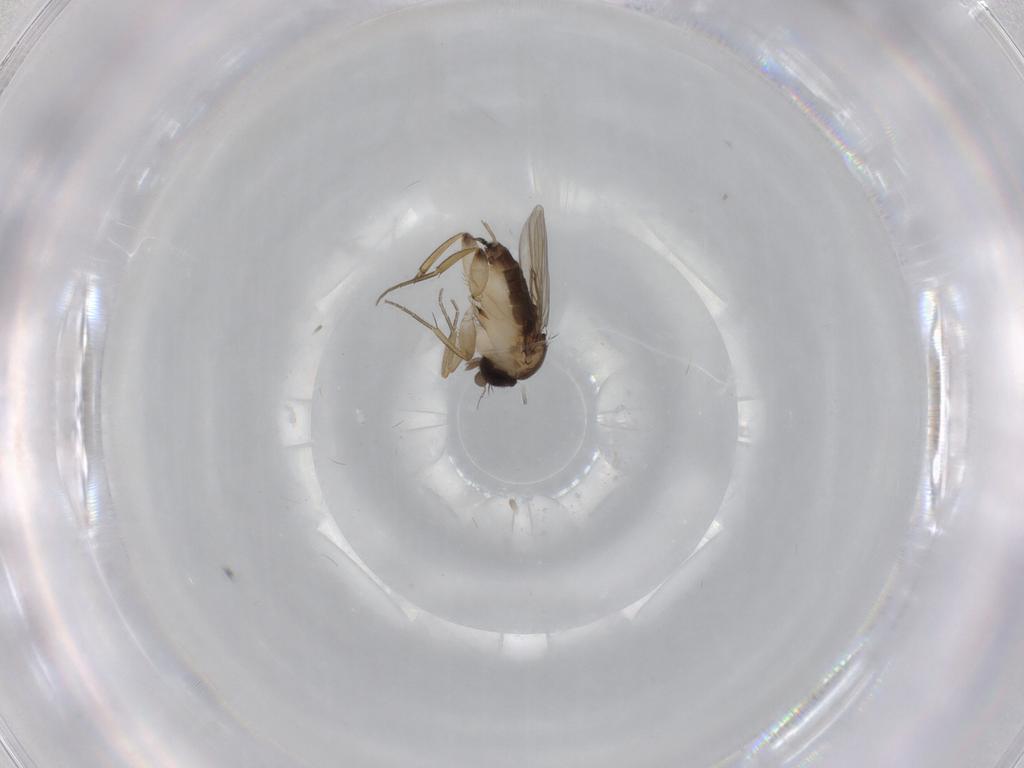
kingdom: Animalia
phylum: Arthropoda
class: Insecta
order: Diptera
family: Phoridae
